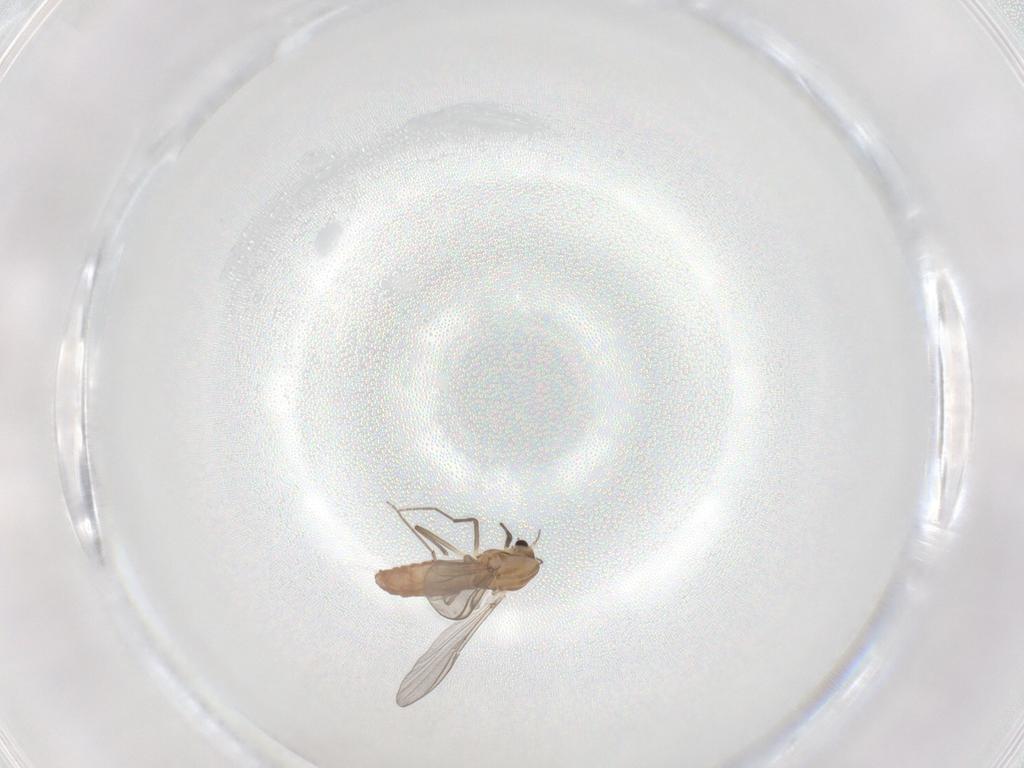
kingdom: Animalia
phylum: Arthropoda
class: Insecta
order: Diptera
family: Chironomidae
